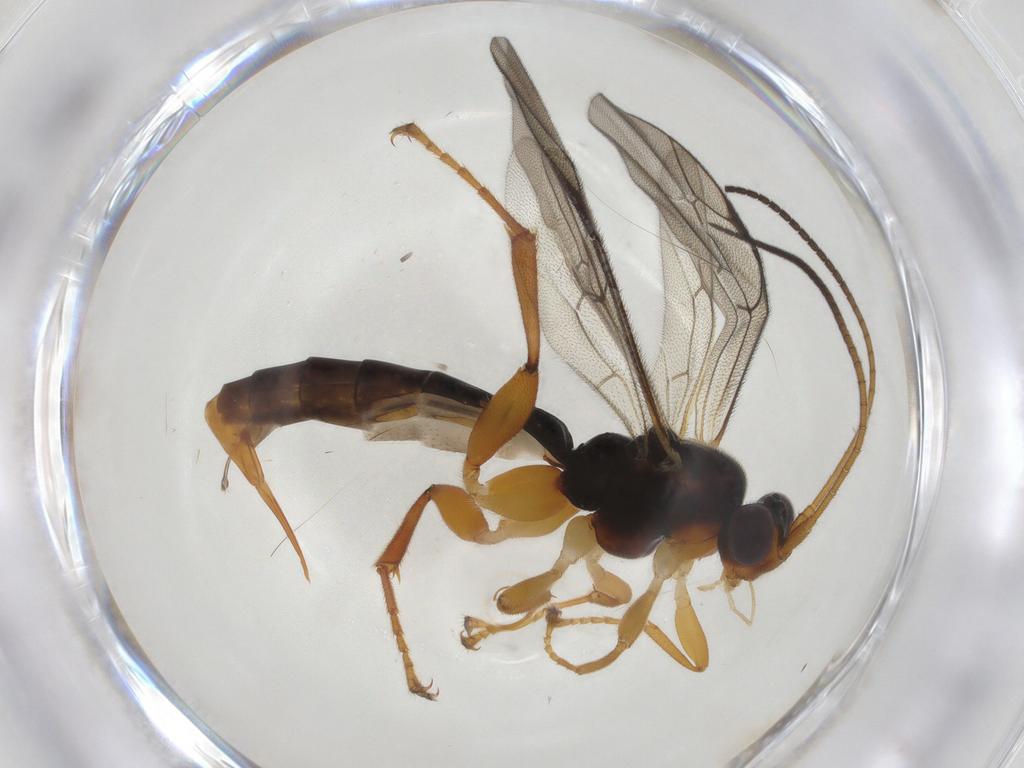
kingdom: Animalia
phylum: Arthropoda
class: Insecta
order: Hymenoptera
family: Ichneumonidae
